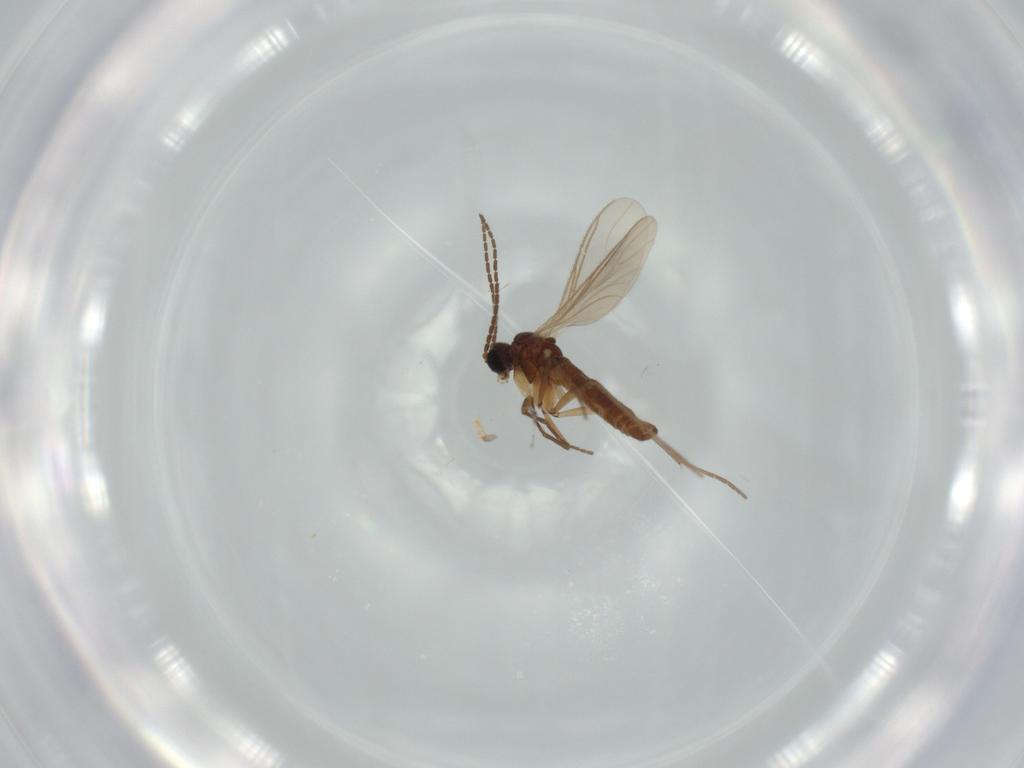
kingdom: Animalia
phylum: Arthropoda
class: Insecta
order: Diptera
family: Sciaridae
